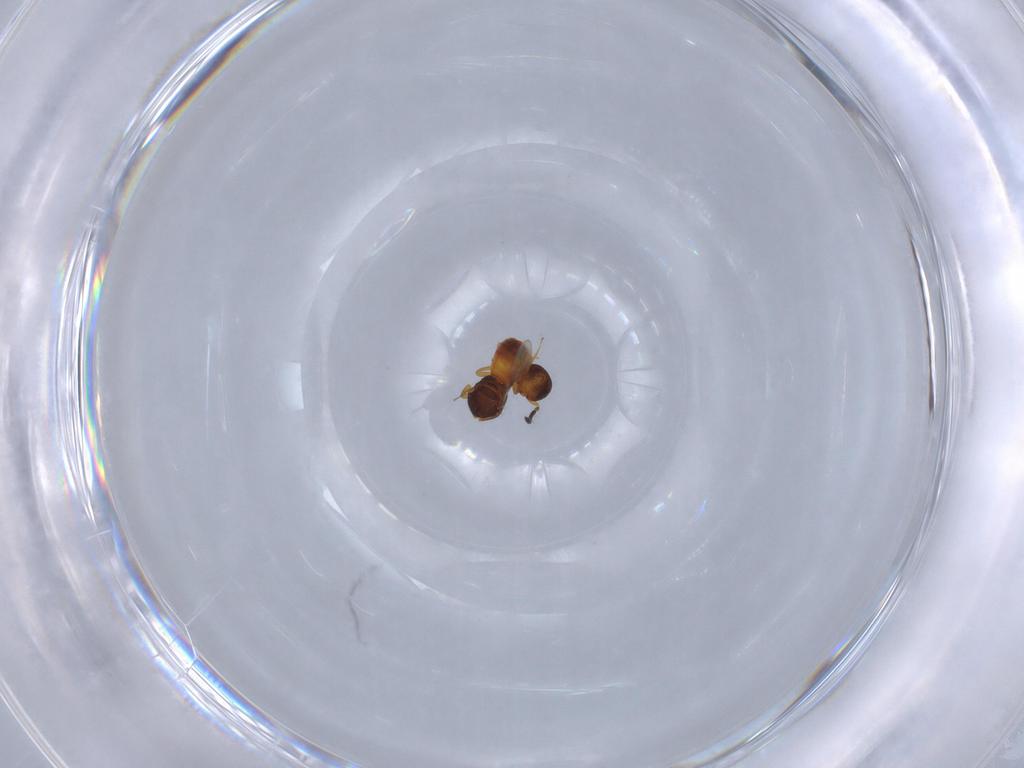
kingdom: Animalia
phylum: Arthropoda
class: Insecta
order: Hymenoptera
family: Scelionidae
